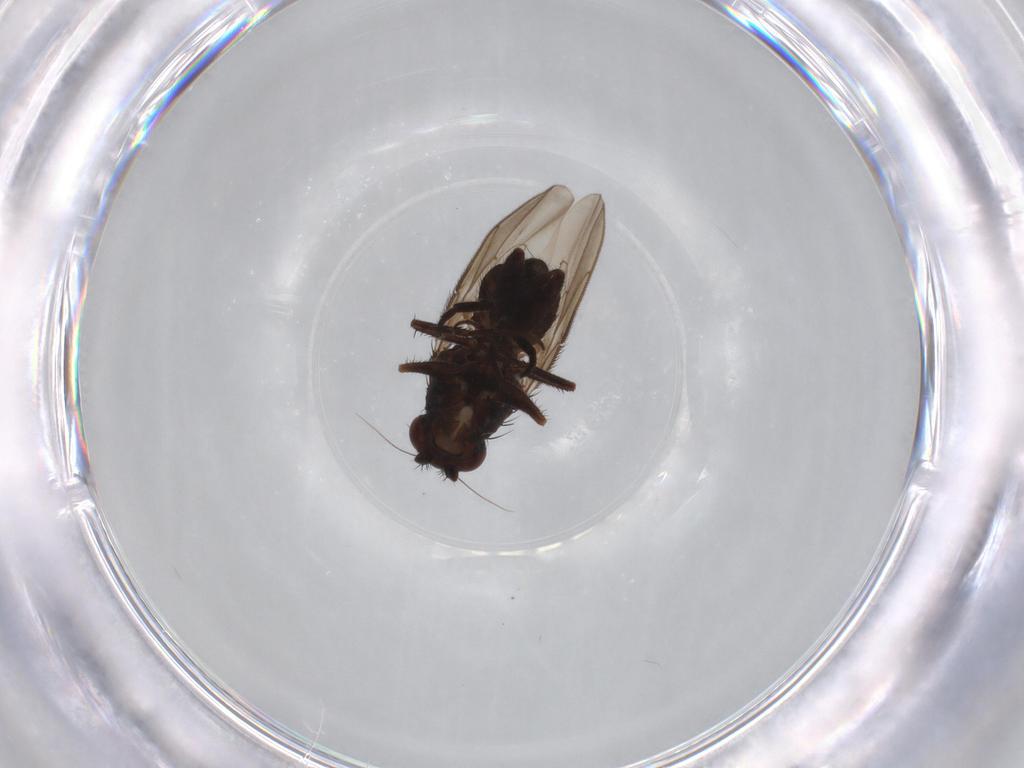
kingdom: Animalia
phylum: Arthropoda
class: Insecta
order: Diptera
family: Sphaeroceridae
